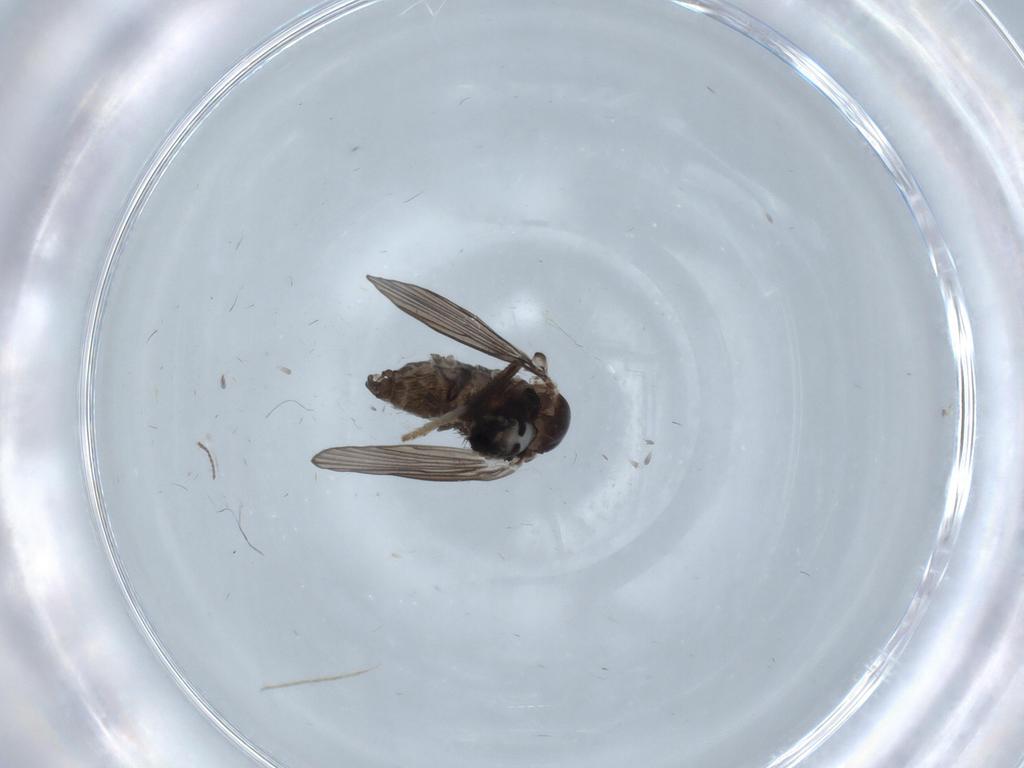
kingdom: Animalia
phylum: Arthropoda
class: Insecta
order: Diptera
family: Psychodidae
